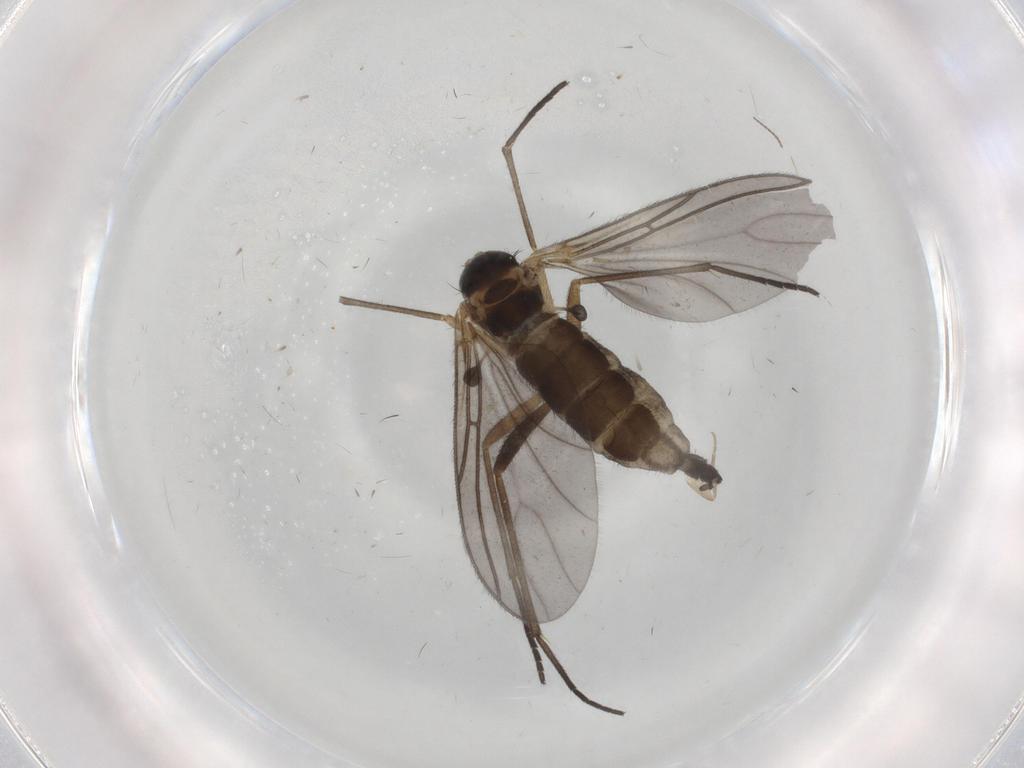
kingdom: Animalia
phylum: Arthropoda
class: Insecta
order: Diptera
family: Sciaridae
